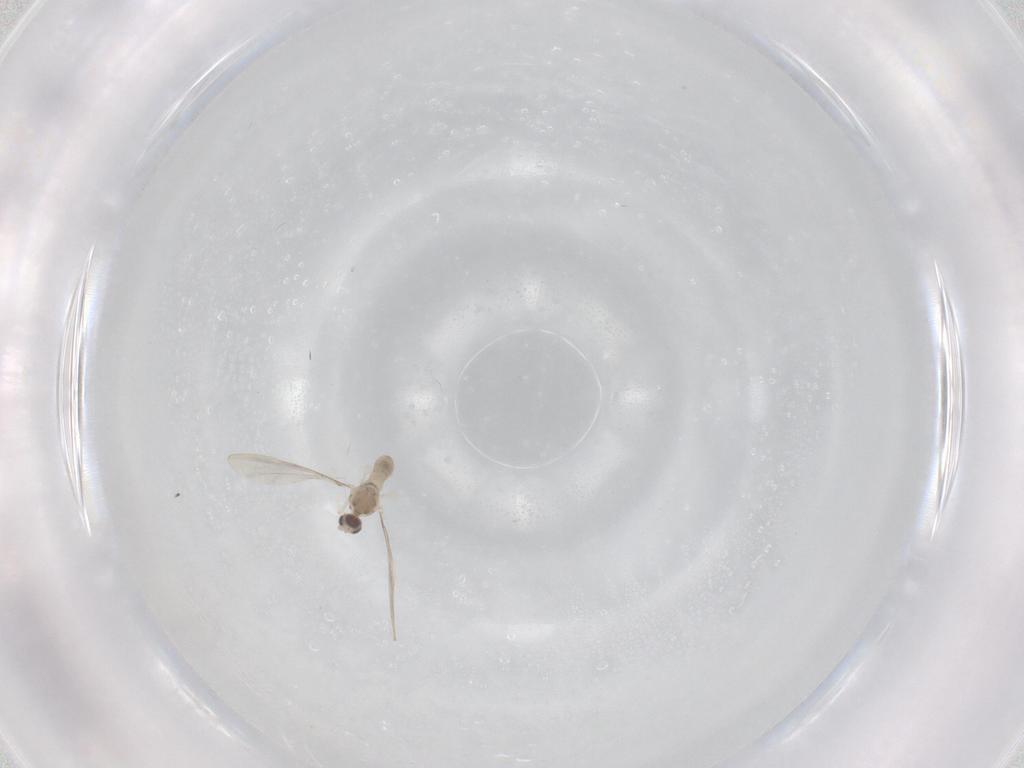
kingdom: Animalia
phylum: Arthropoda
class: Insecta
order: Diptera
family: Cecidomyiidae
